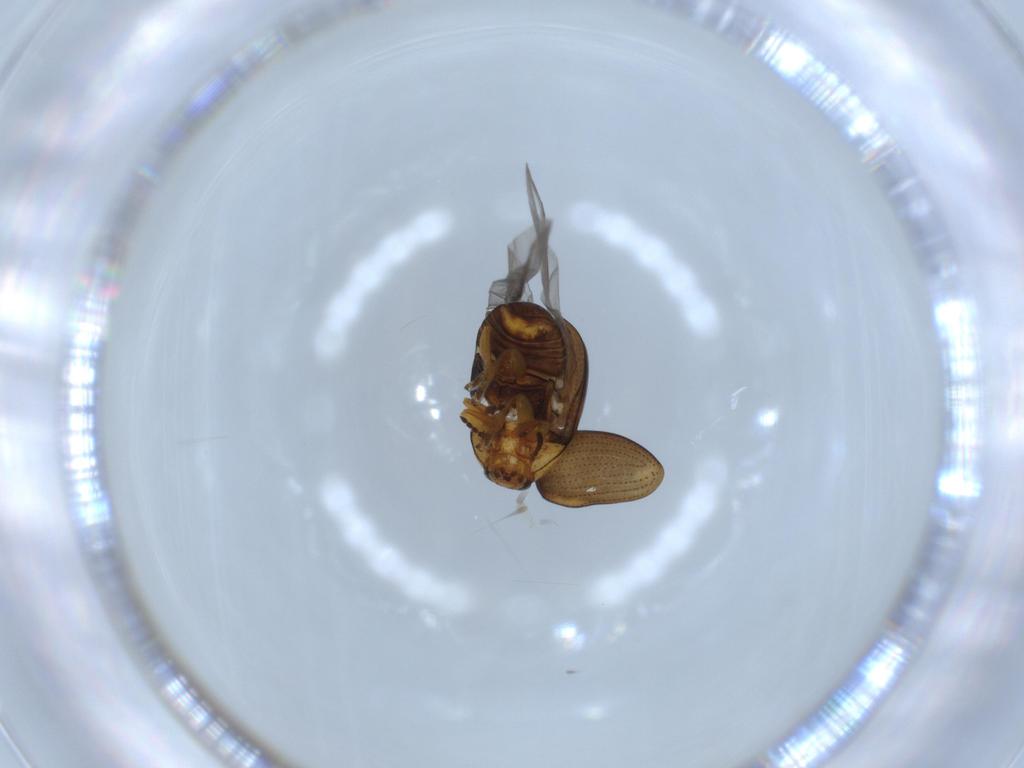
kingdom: Animalia
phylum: Arthropoda
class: Insecta
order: Coleoptera
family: Chrysomelidae
